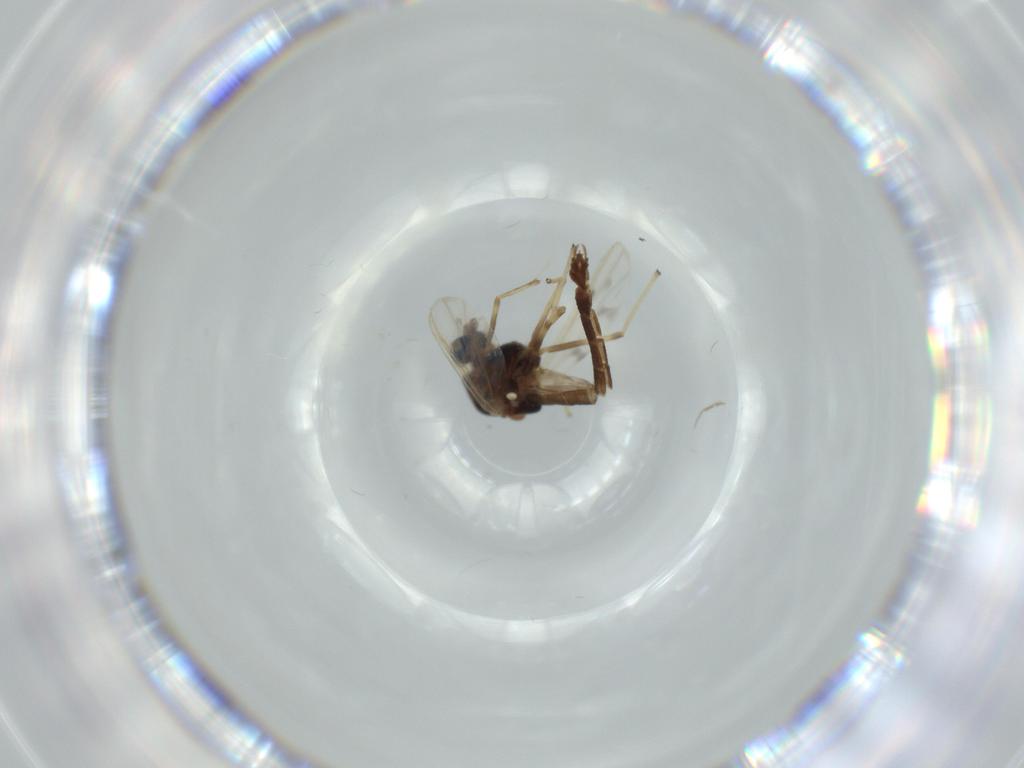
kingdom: Animalia
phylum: Arthropoda
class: Insecta
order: Diptera
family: Chironomidae
